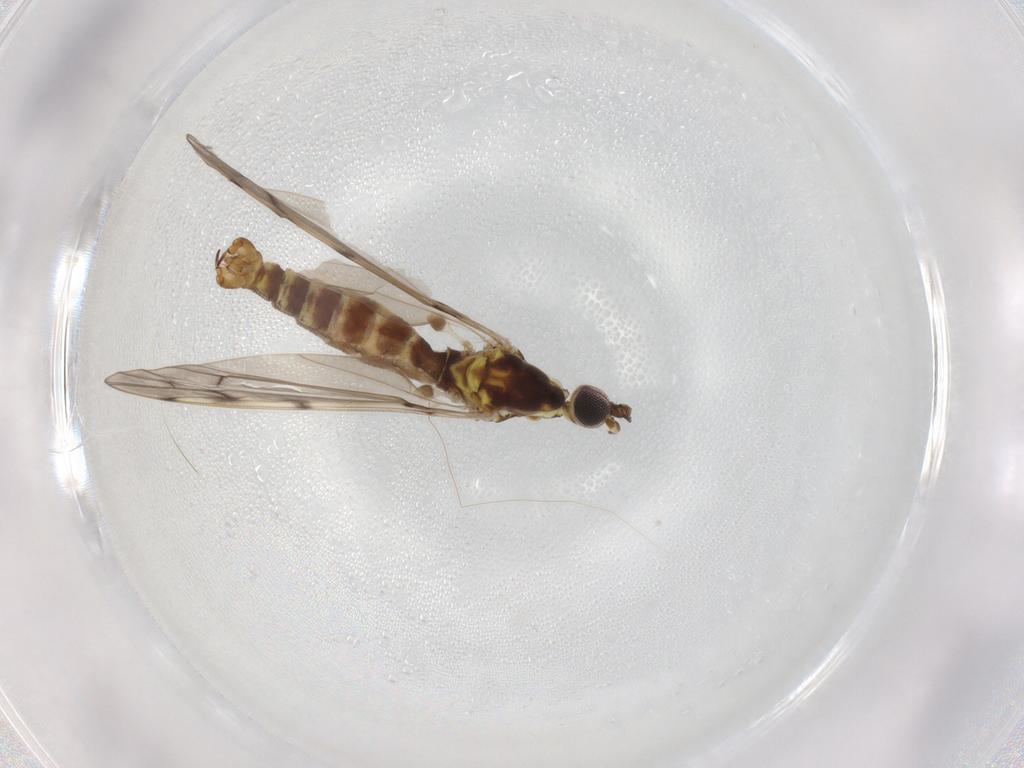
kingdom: Animalia
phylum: Arthropoda
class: Insecta
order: Diptera
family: Limoniidae
